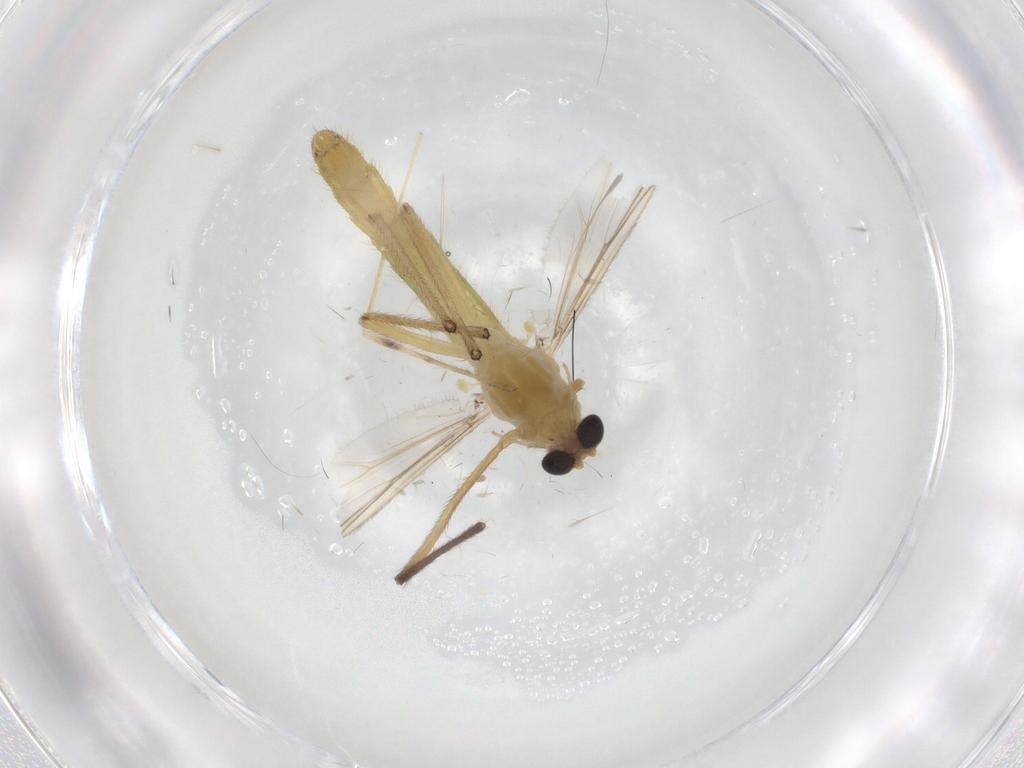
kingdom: Animalia
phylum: Arthropoda
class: Insecta
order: Diptera
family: Chironomidae
